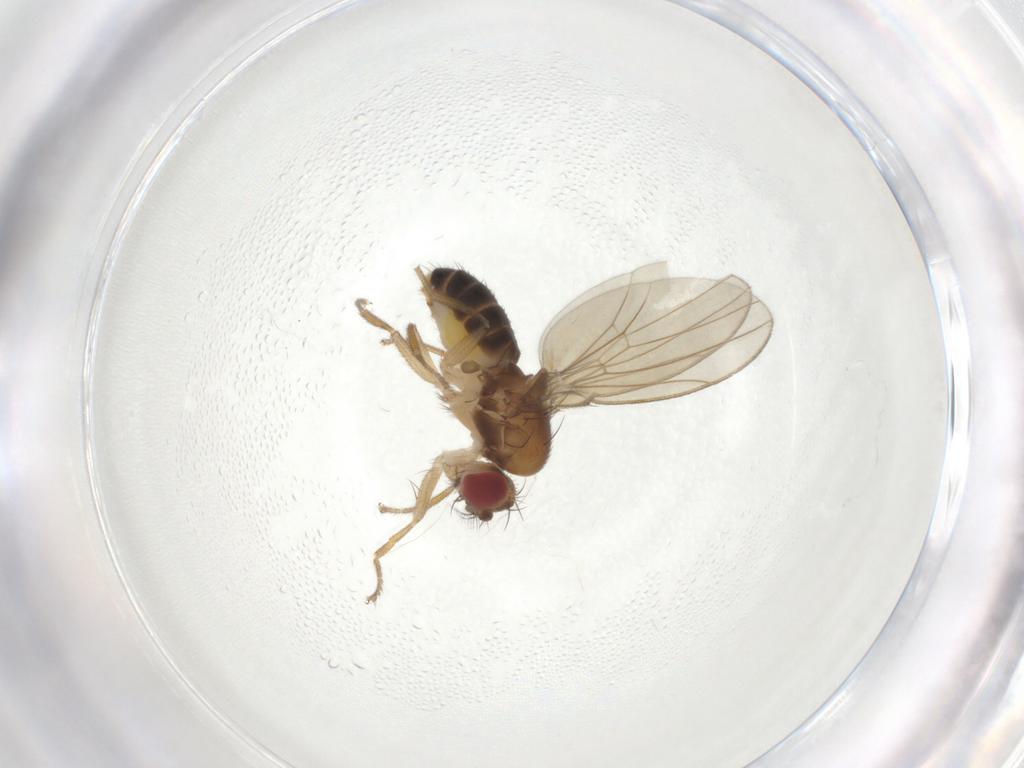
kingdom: Animalia
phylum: Arthropoda
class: Insecta
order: Diptera
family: Drosophilidae
